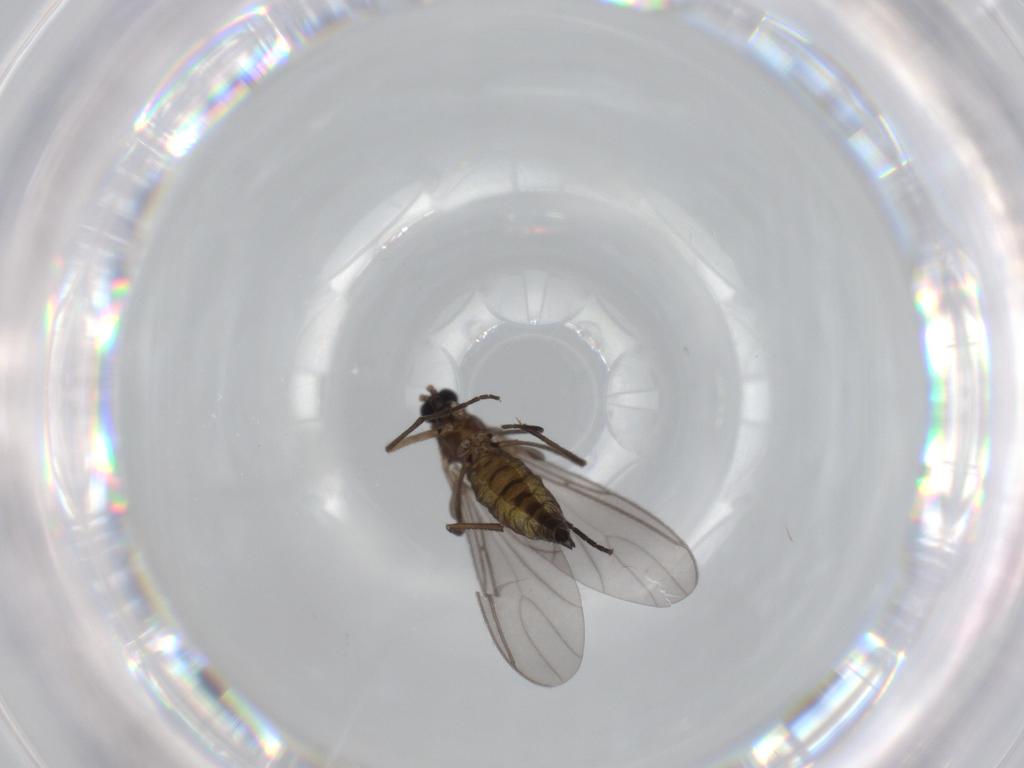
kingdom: Animalia
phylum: Arthropoda
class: Insecta
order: Diptera
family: Sciaridae
